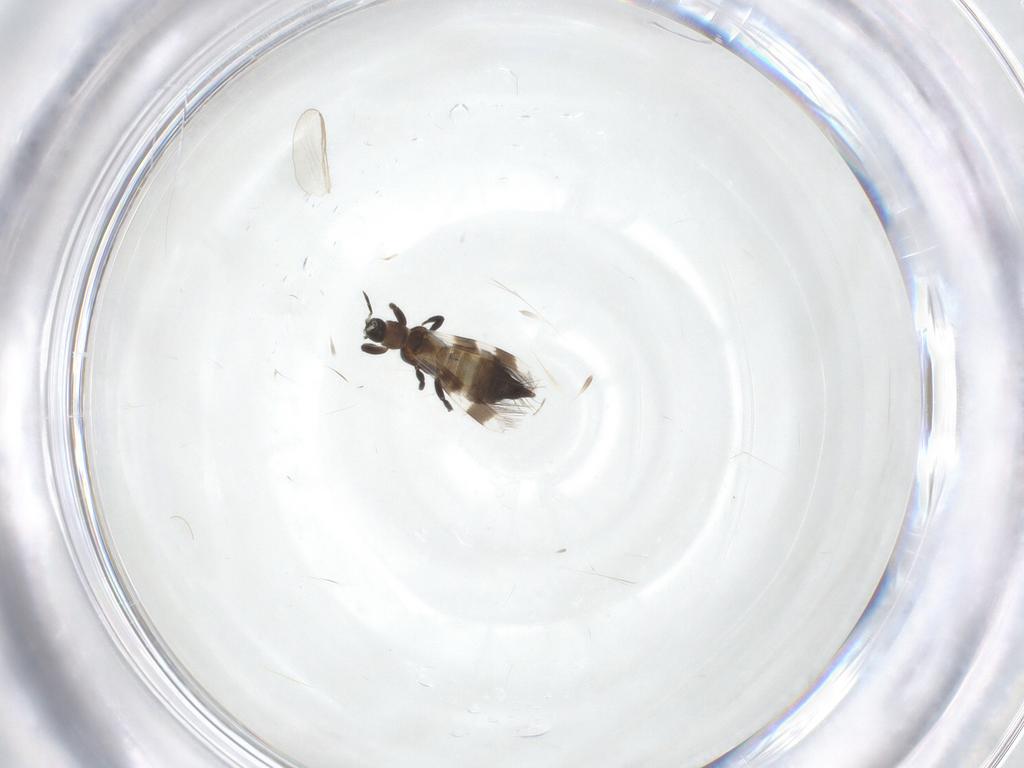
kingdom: Animalia
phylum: Arthropoda
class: Insecta
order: Thysanoptera
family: Aeolothripidae
